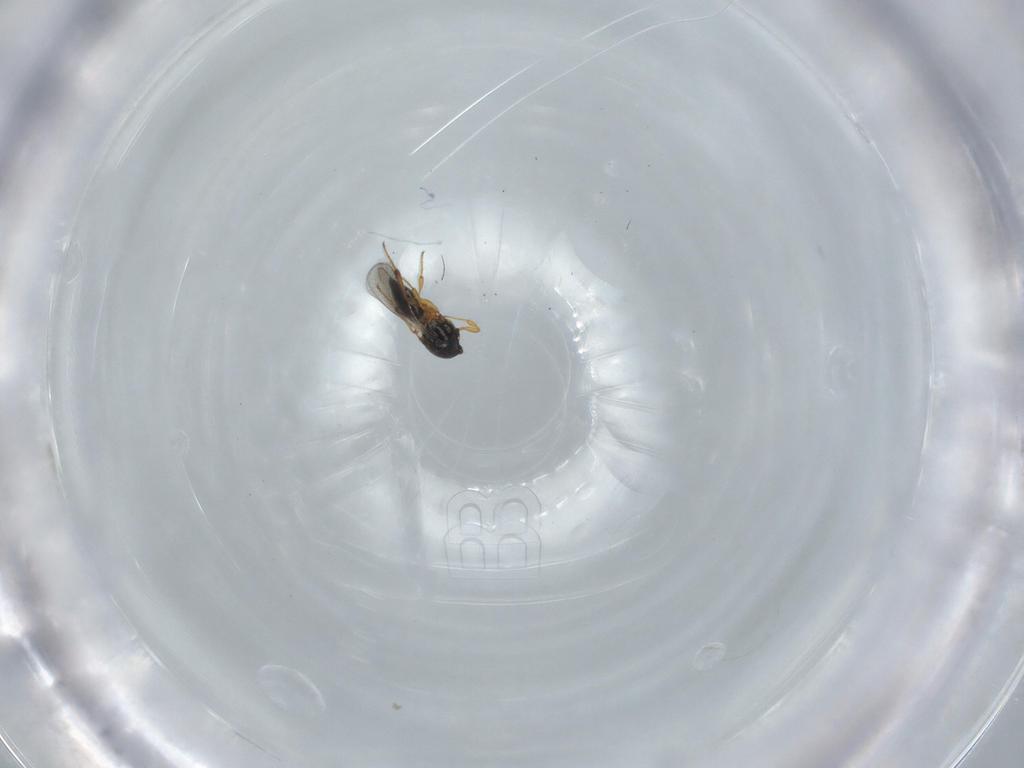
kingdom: Animalia
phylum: Arthropoda
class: Insecta
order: Hymenoptera
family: Platygastridae
